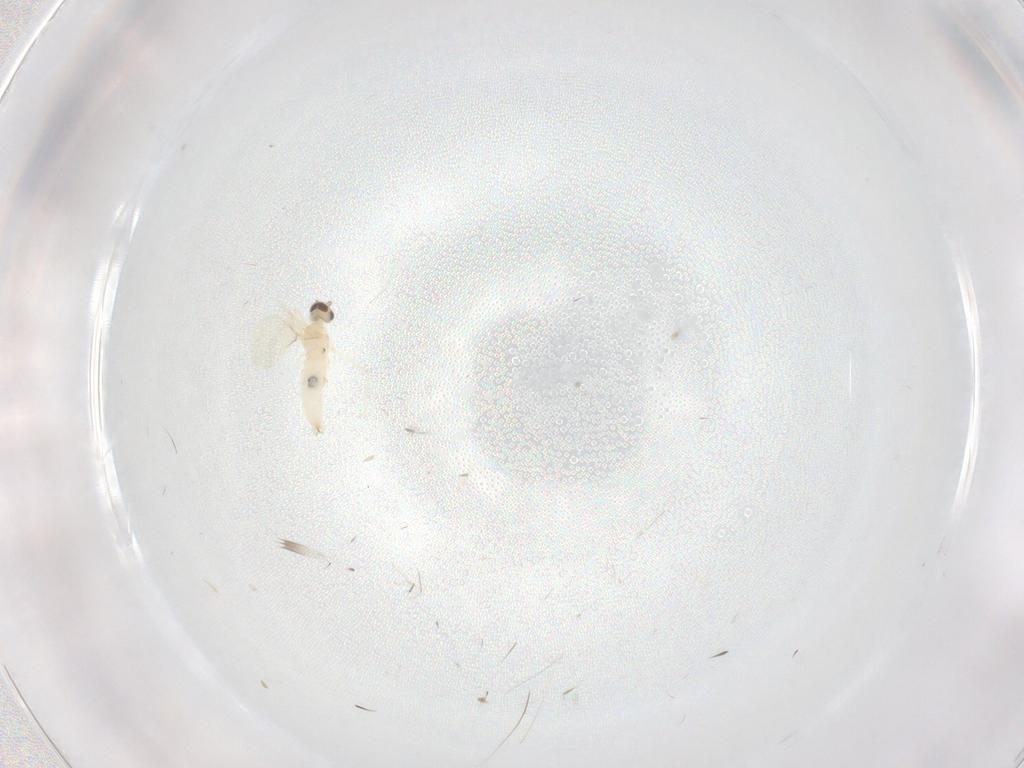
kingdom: Animalia
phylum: Arthropoda
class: Insecta
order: Diptera
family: Cecidomyiidae
